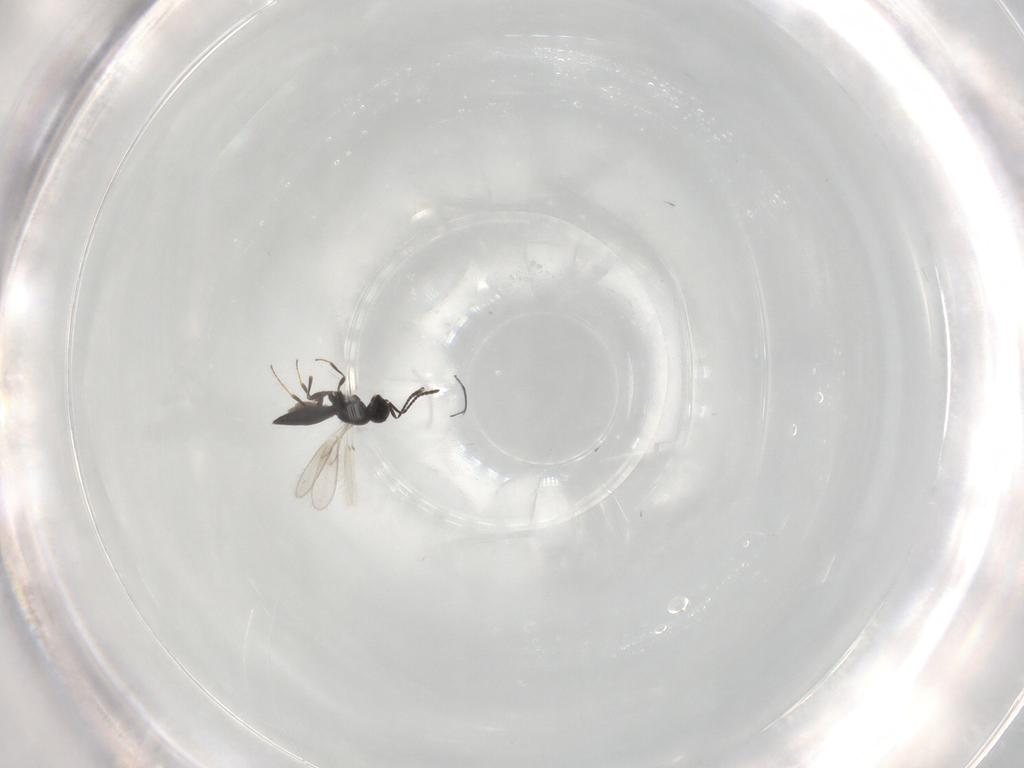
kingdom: Animalia
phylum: Arthropoda
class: Insecta
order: Hymenoptera
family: Scelionidae
